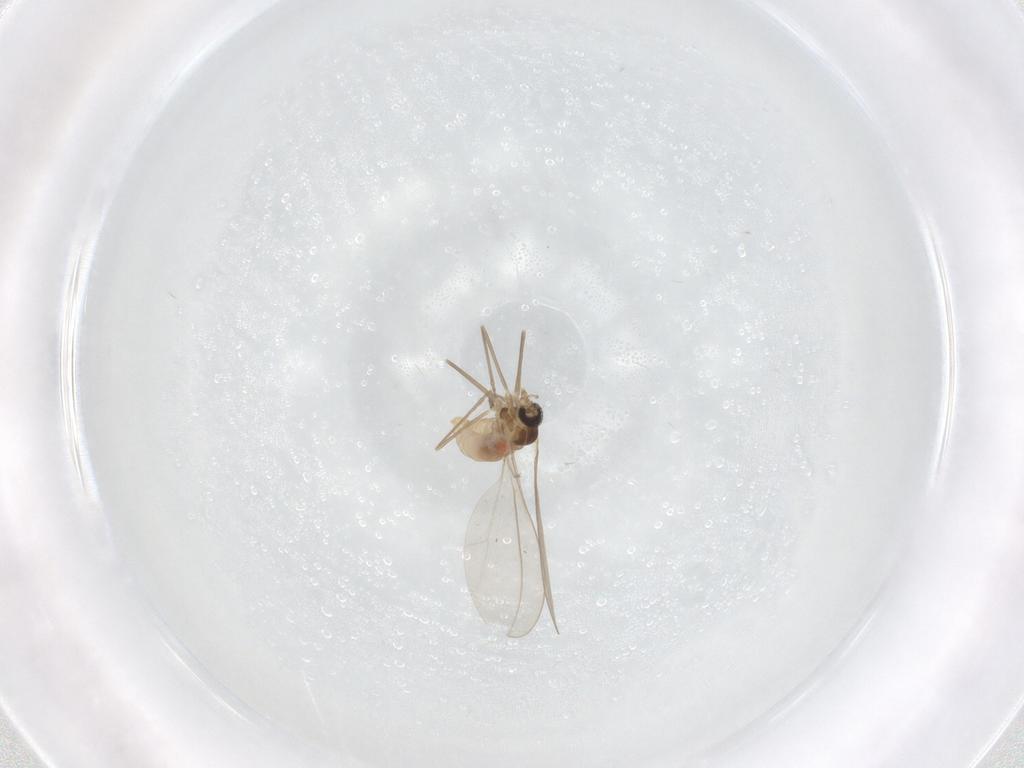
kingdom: Animalia
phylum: Arthropoda
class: Insecta
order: Diptera
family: Cecidomyiidae
